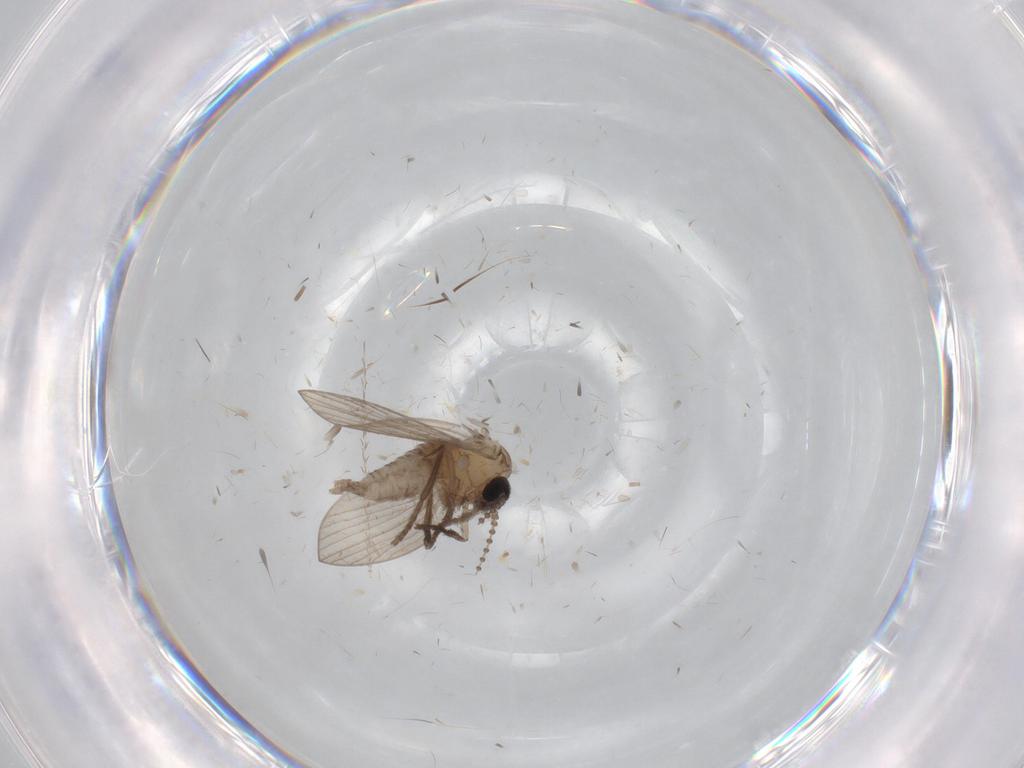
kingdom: Animalia
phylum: Arthropoda
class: Insecta
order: Diptera
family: Psychodidae
